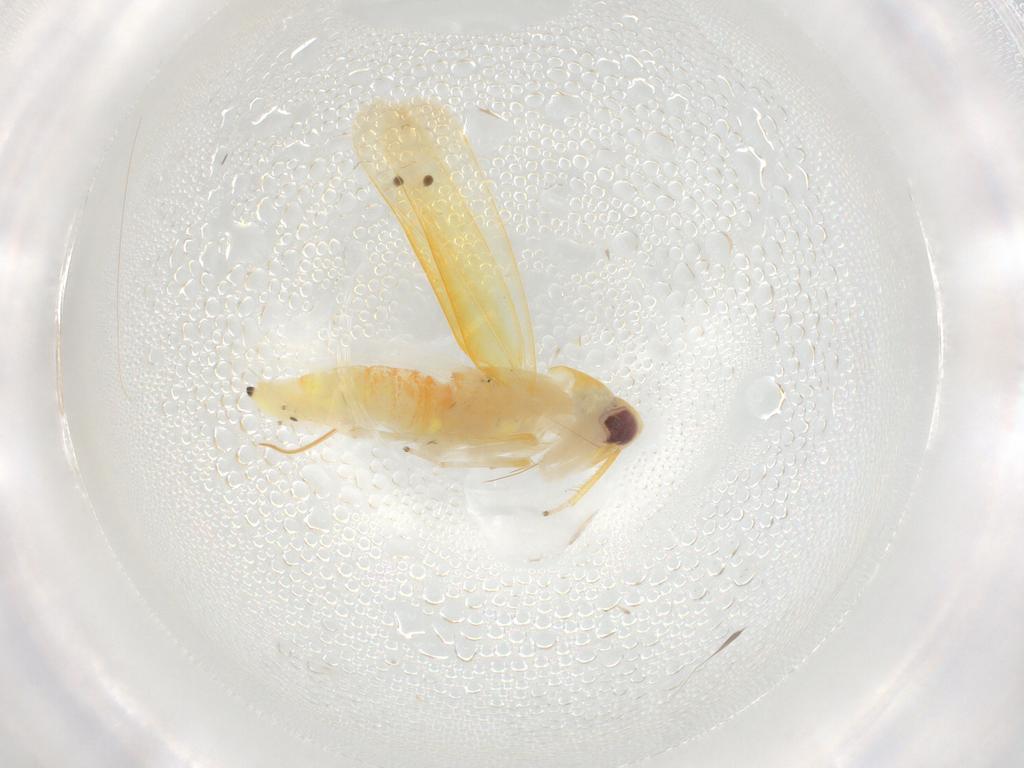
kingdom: Animalia
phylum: Arthropoda
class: Insecta
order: Hemiptera
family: Cicadellidae
